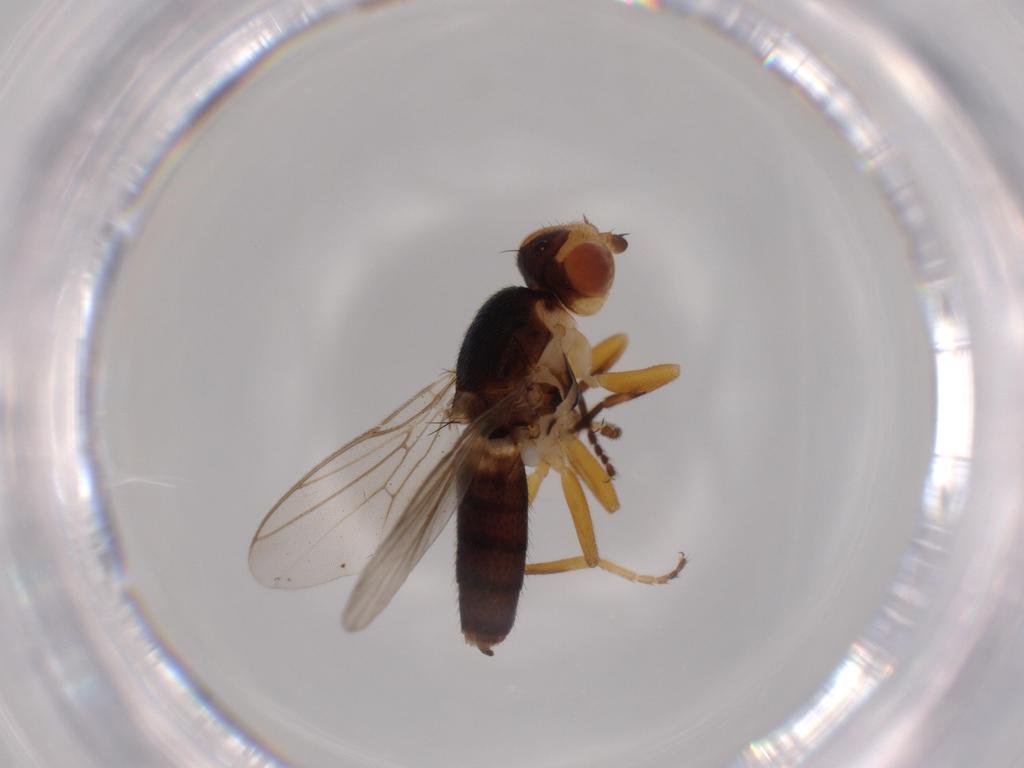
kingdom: Animalia
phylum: Arthropoda
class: Insecta
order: Diptera
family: Chloropidae
